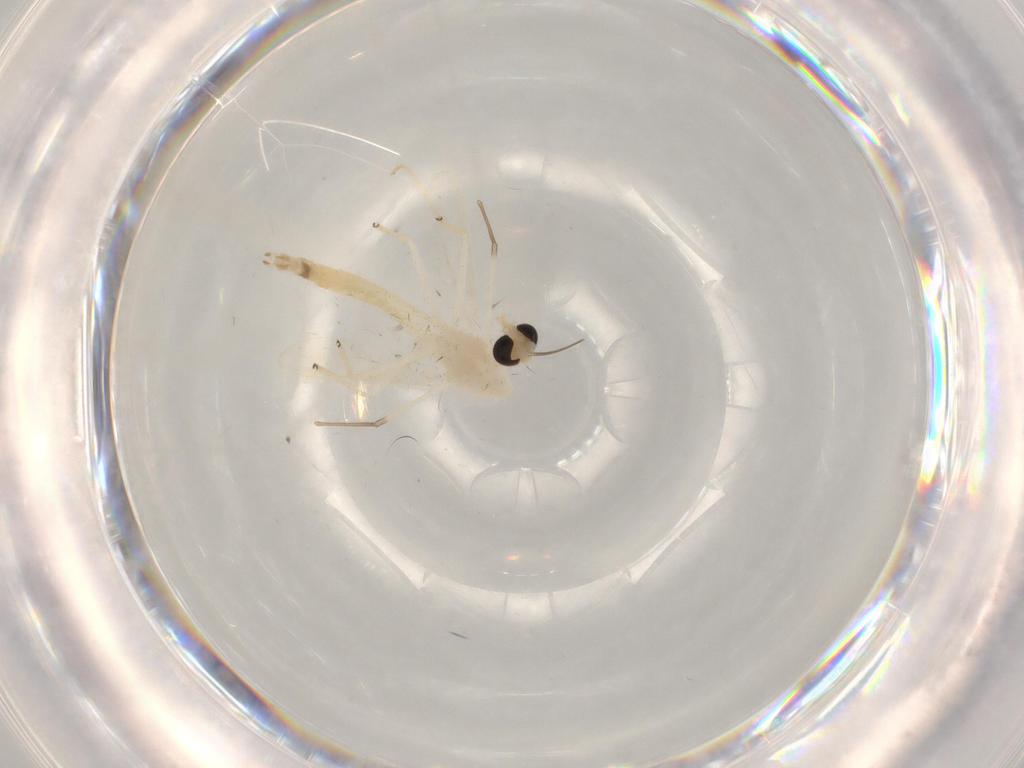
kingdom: Animalia
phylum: Arthropoda
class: Insecta
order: Diptera
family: Chironomidae
